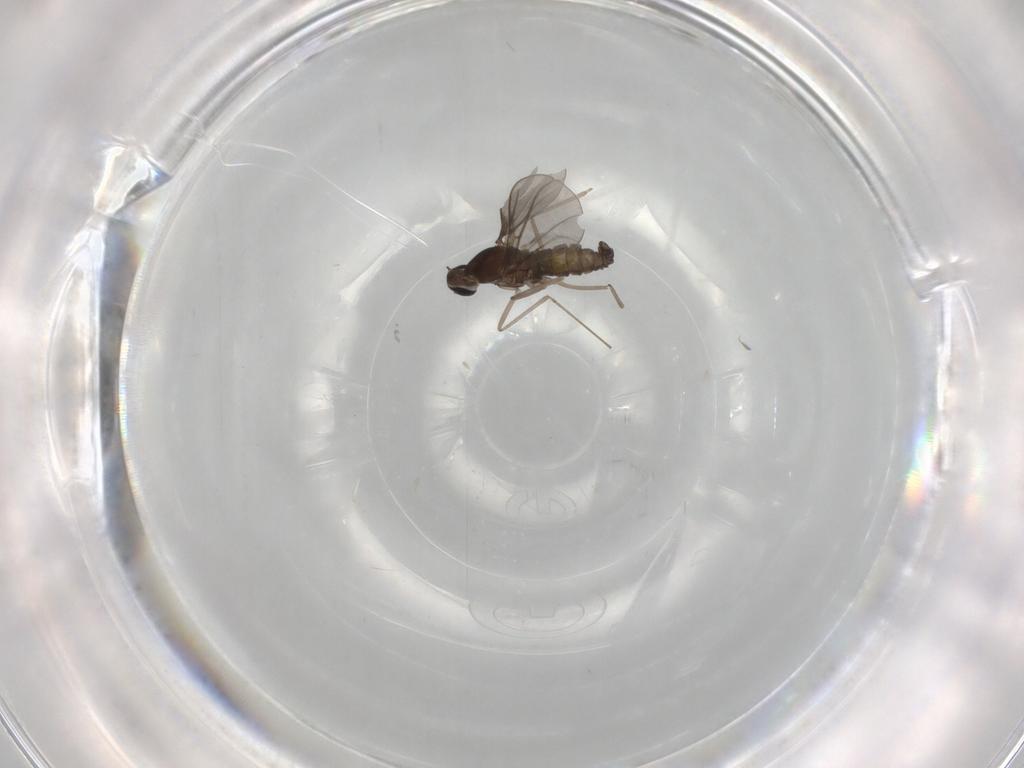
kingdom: Animalia
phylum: Arthropoda
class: Insecta
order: Diptera
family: Cecidomyiidae
